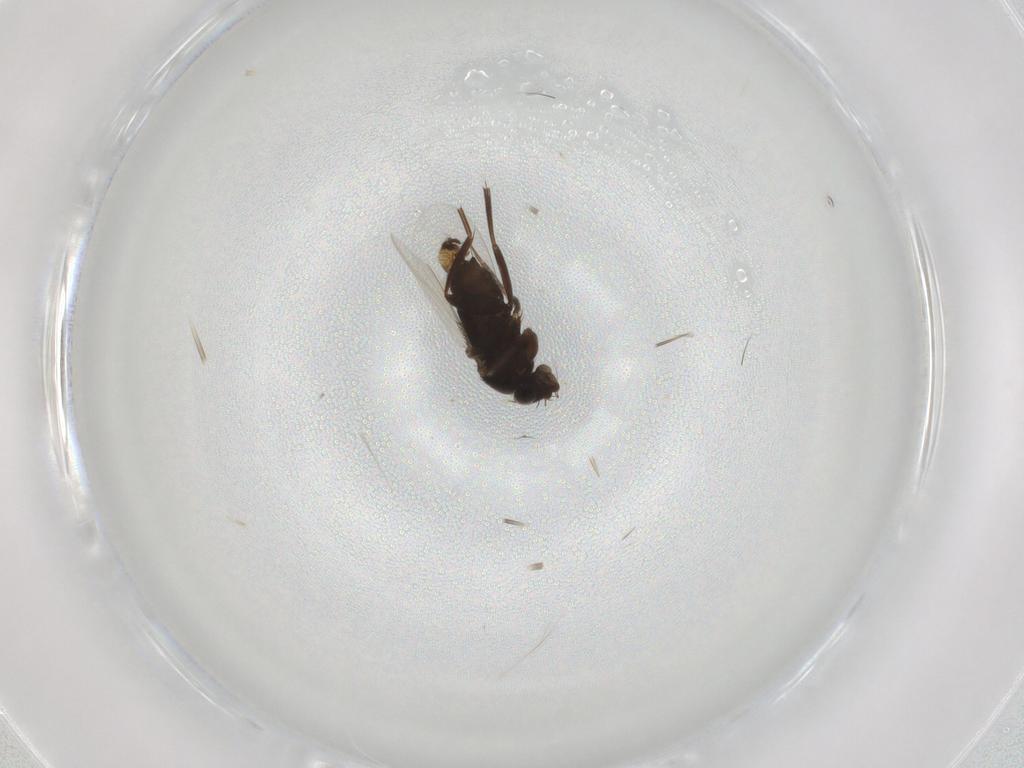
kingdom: Animalia
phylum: Arthropoda
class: Insecta
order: Diptera
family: Phoridae
